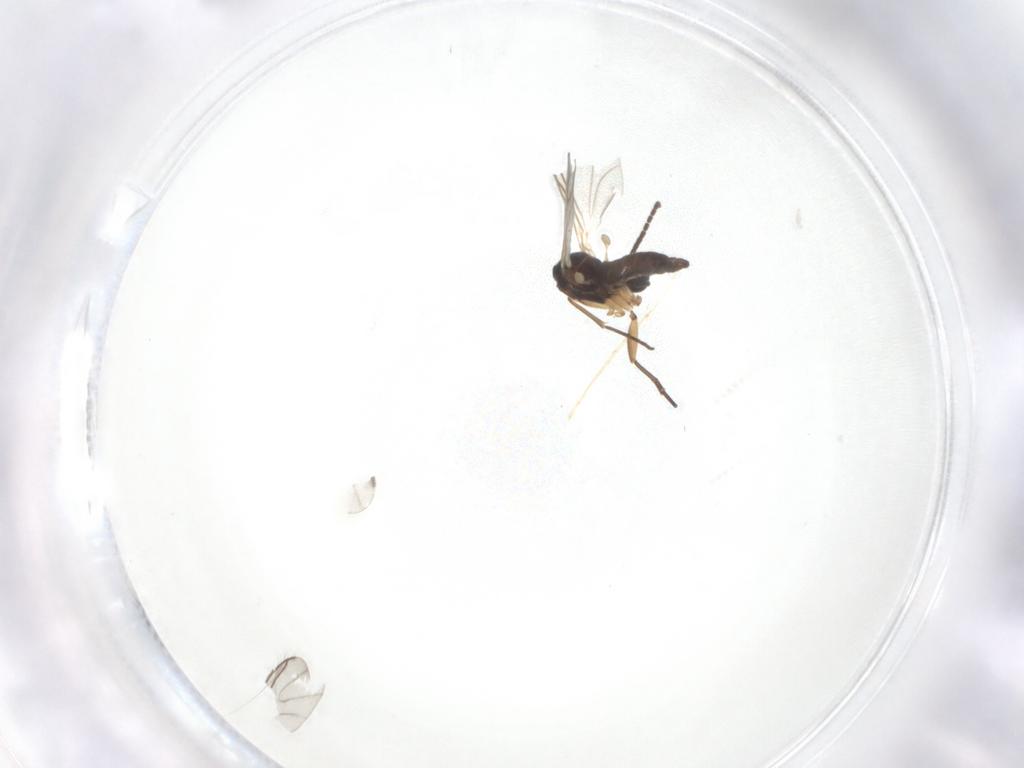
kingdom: Animalia
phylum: Arthropoda
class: Insecta
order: Diptera
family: Sciaridae
